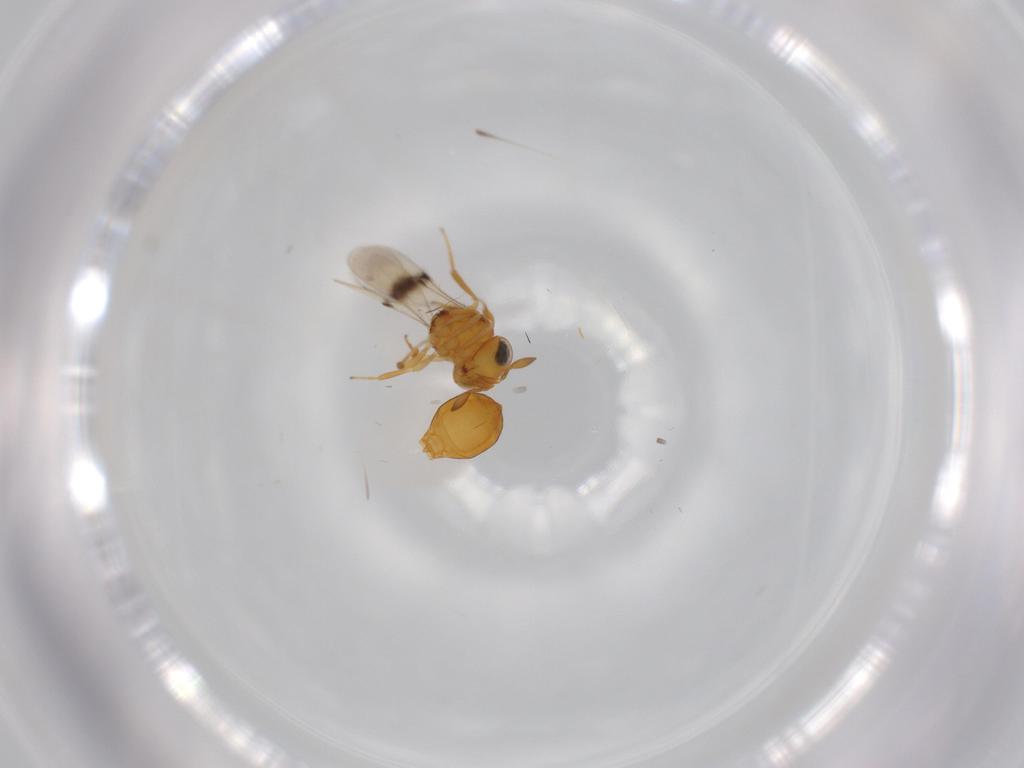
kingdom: Animalia
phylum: Arthropoda
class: Insecta
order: Hymenoptera
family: Scelionidae
